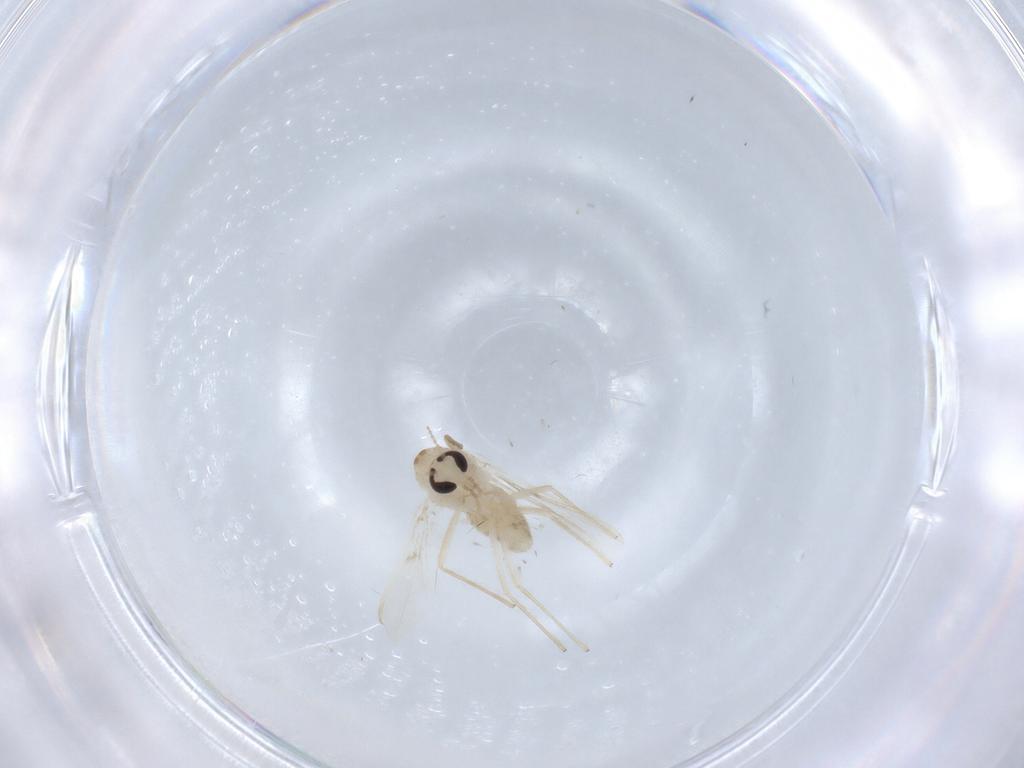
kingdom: Animalia
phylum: Arthropoda
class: Insecta
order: Diptera
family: Chironomidae
